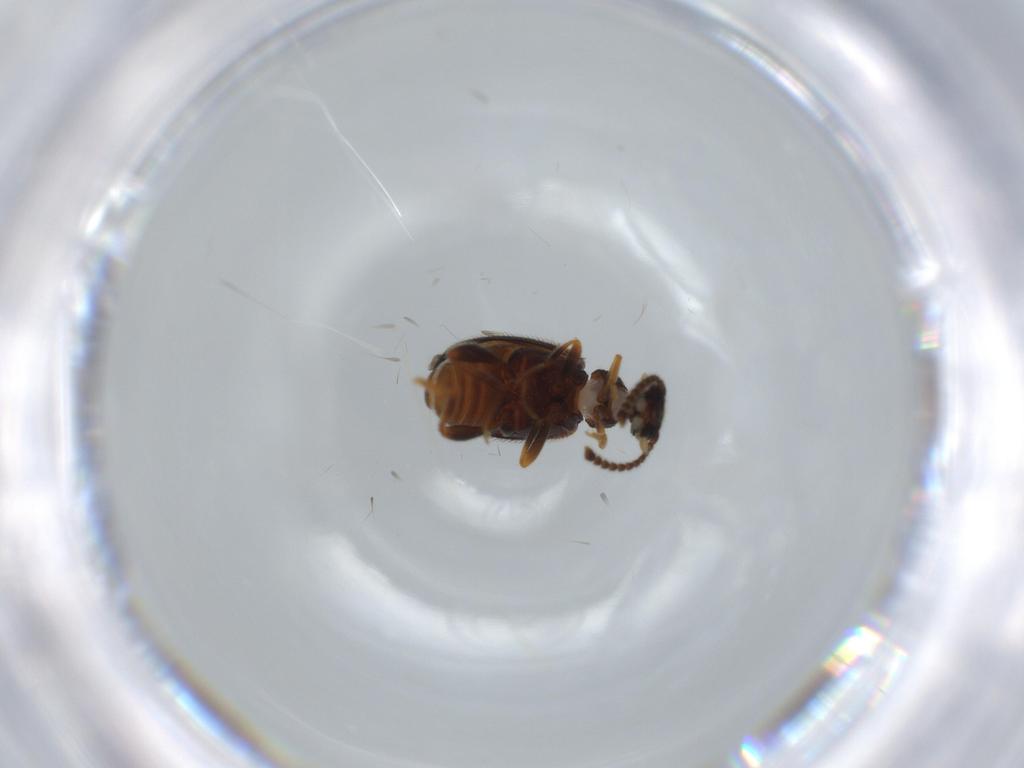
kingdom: Animalia
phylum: Arthropoda
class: Insecta
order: Coleoptera
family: Aderidae
